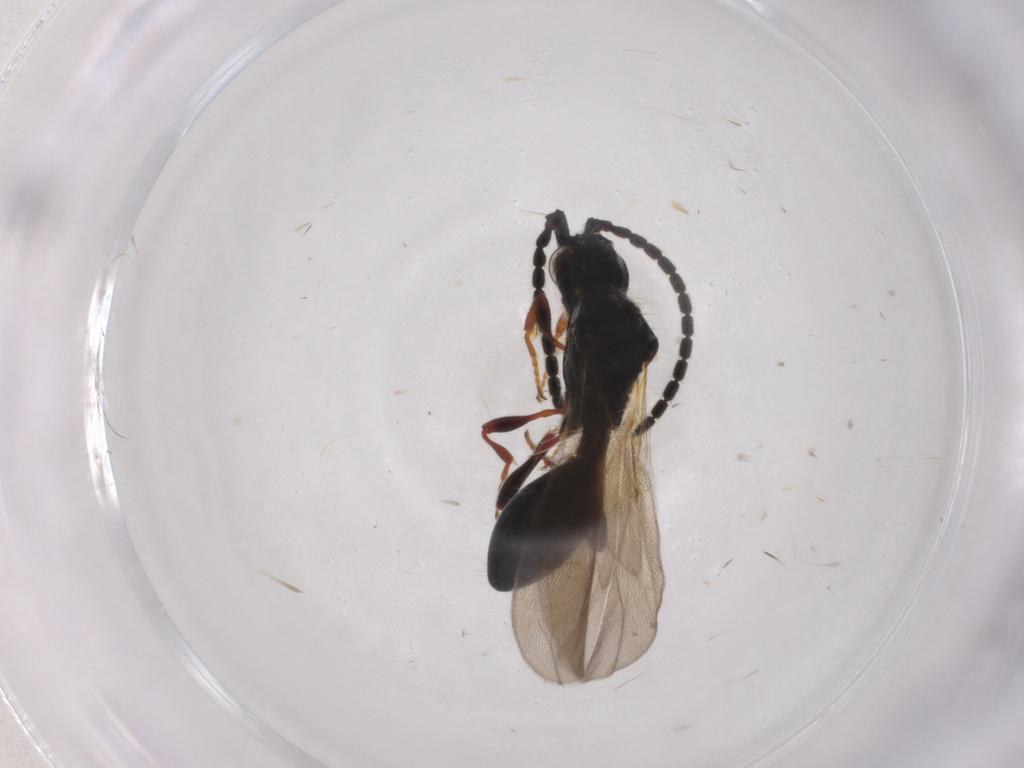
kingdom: Animalia
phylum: Arthropoda
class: Insecta
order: Hymenoptera
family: Diapriidae
